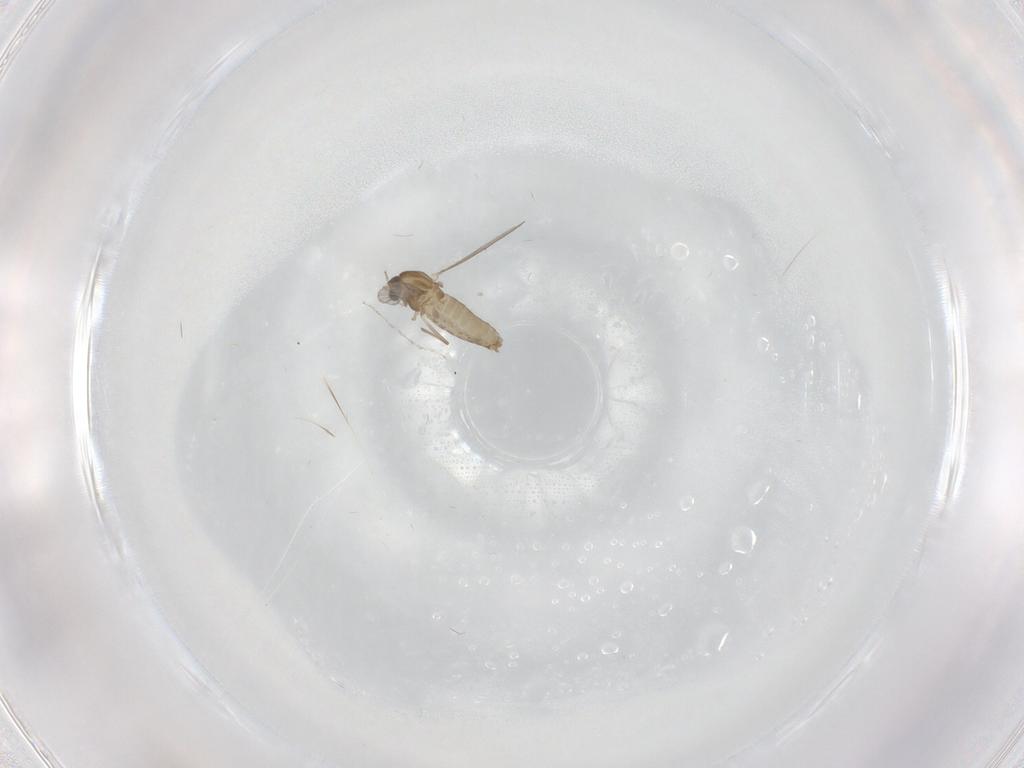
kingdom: Animalia
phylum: Arthropoda
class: Insecta
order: Diptera
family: Chironomidae
